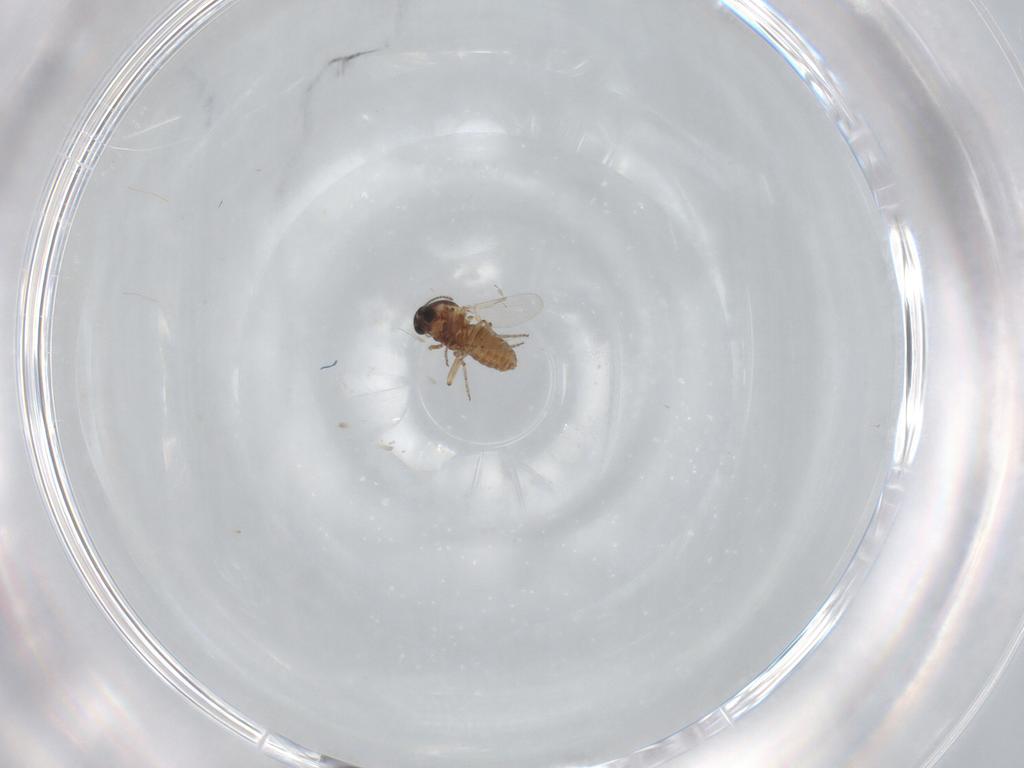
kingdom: Animalia
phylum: Arthropoda
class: Insecta
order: Diptera
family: Ceratopogonidae
